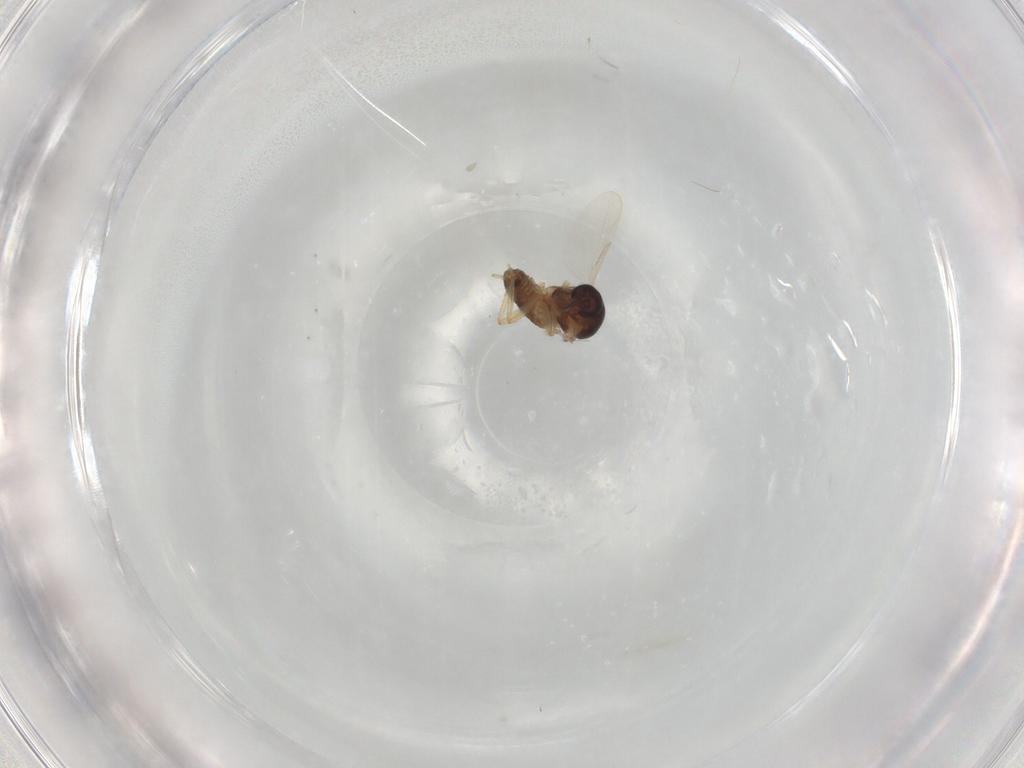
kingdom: Animalia
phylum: Arthropoda
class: Insecta
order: Diptera
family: Ceratopogonidae
